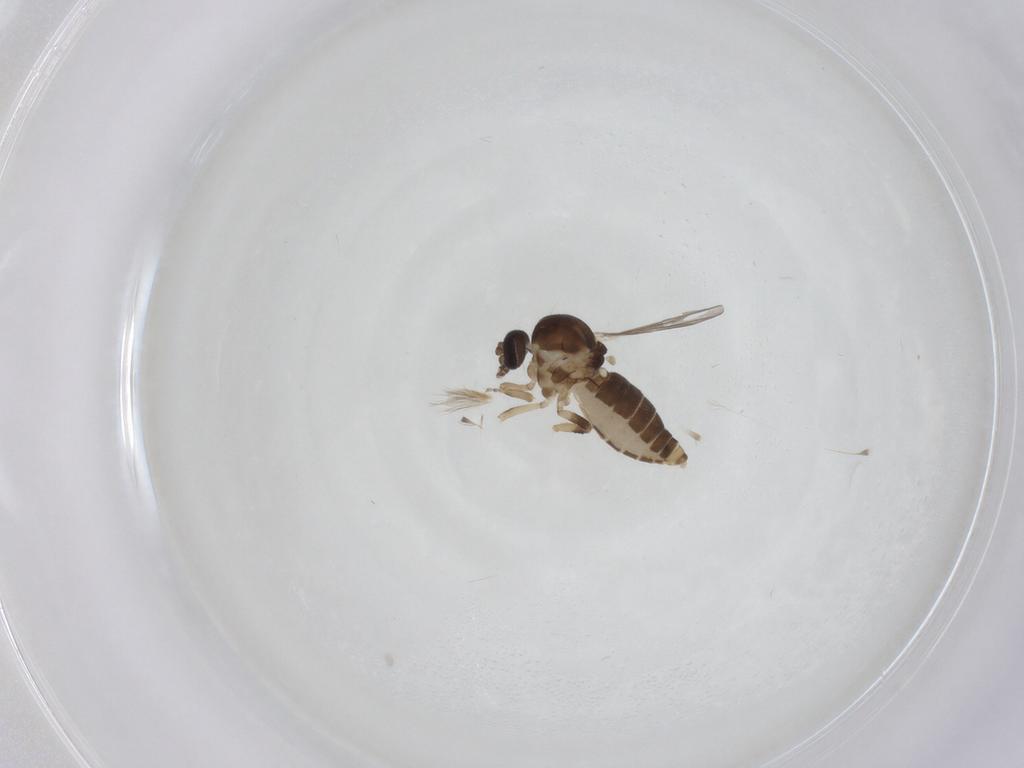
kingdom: Animalia
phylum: Arthropoda
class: Insecta
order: Diptera
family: Ceratopogonidae
